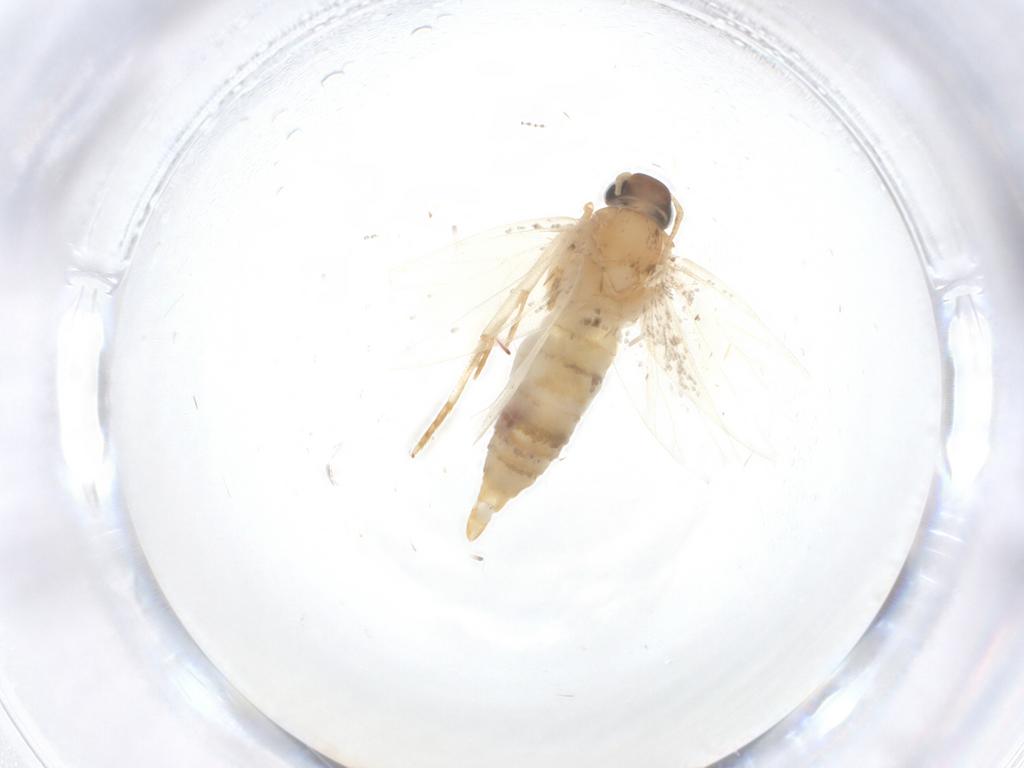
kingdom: Animalia
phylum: Arthropoda
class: Insecta
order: Lepidoptera
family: Oecophoridae
